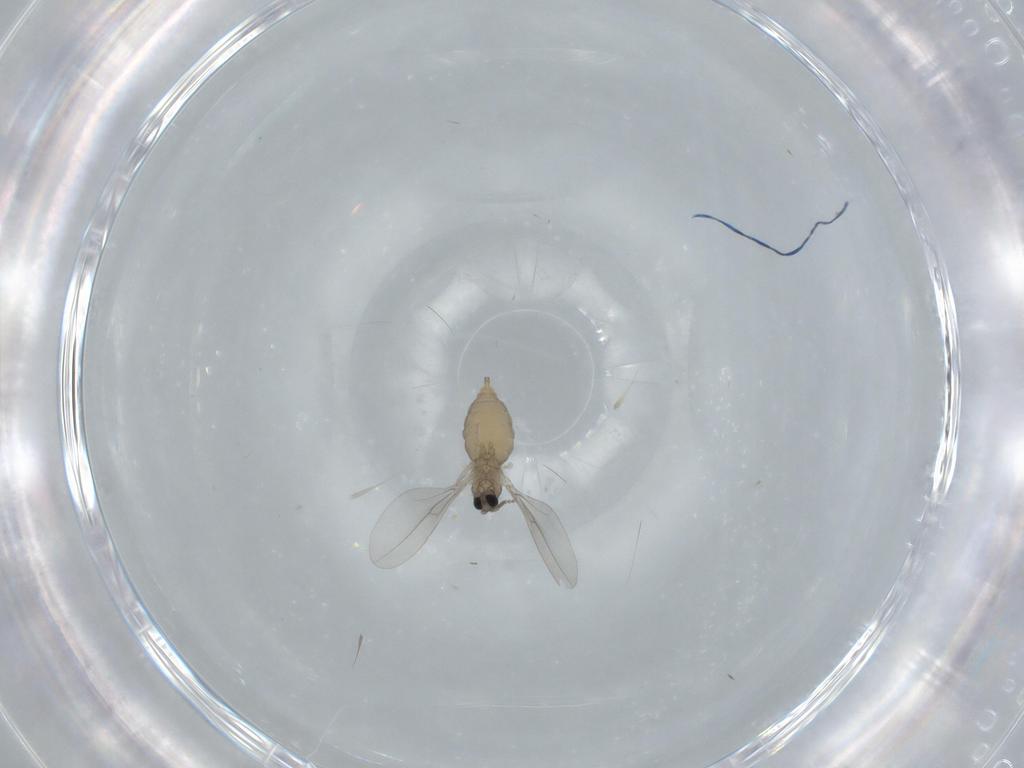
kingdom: Animalia
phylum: Arthropoda
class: Insecta
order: Diptera
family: Cecidomyiidae
